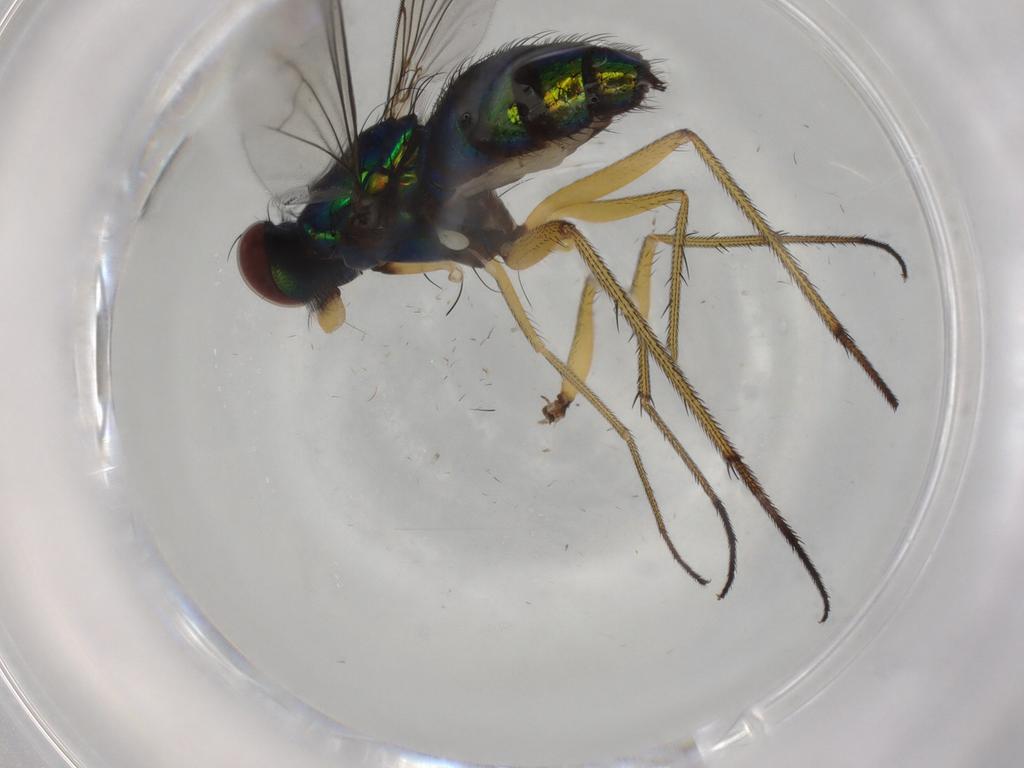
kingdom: Animalia
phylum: Arthropoda
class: Insecta
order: Diptera
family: Dolichopodidae
